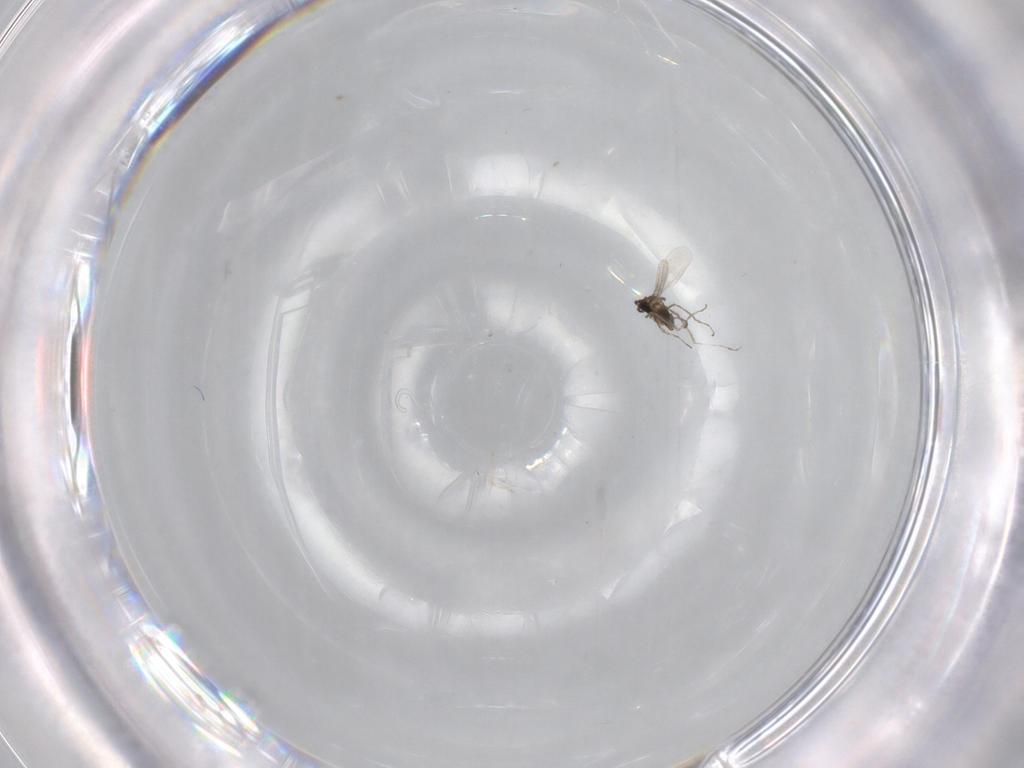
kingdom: Animalia
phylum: Arthropoda
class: Insecta
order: Diptera
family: Cecidomyiidae
